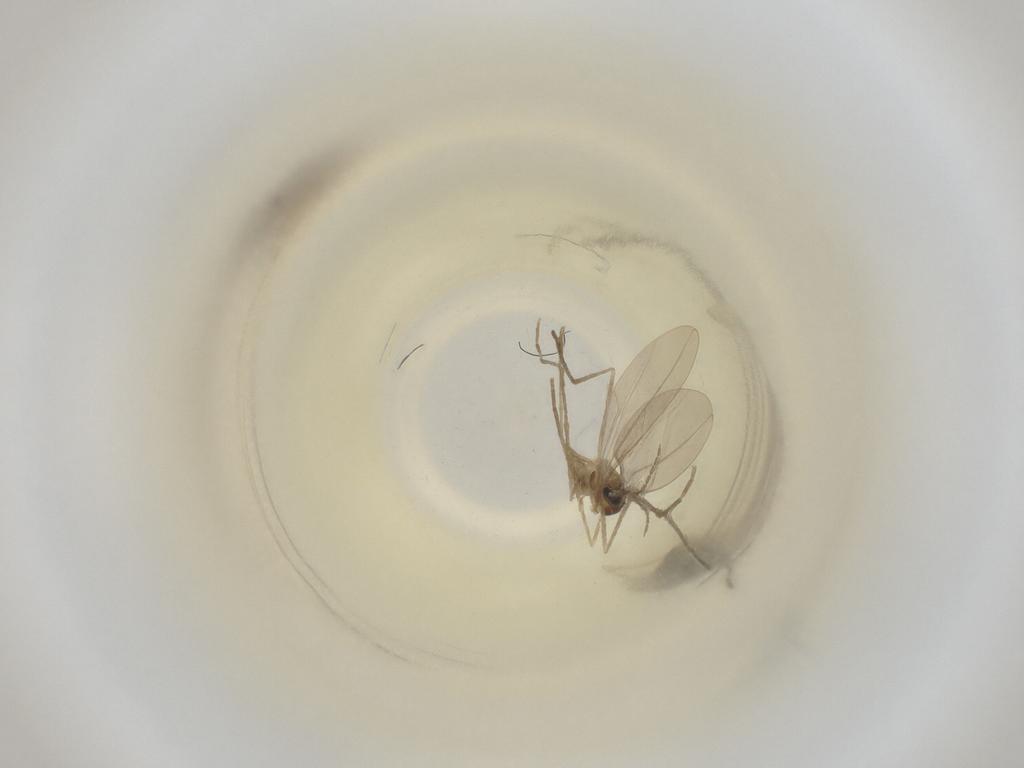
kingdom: Animalia
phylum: Arthropoda
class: Insecta
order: Diptera
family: Cecidomyiidae
